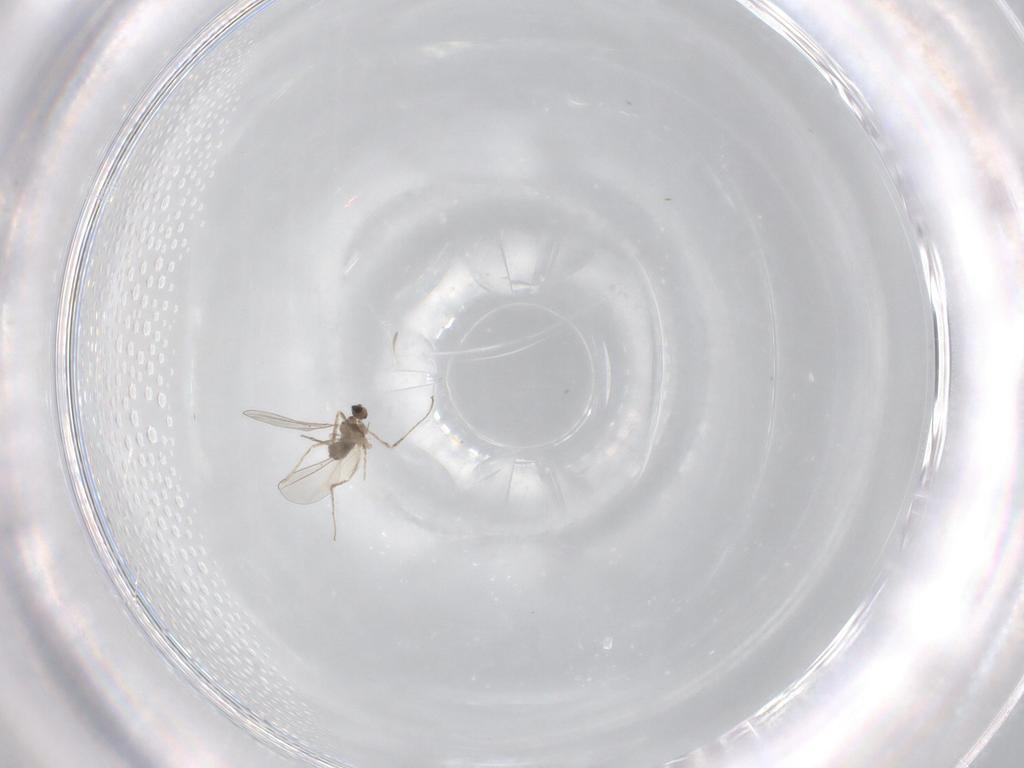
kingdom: Animalia
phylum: Arthropoda
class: Insecta
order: Diptera
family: Cecidomyiidae
